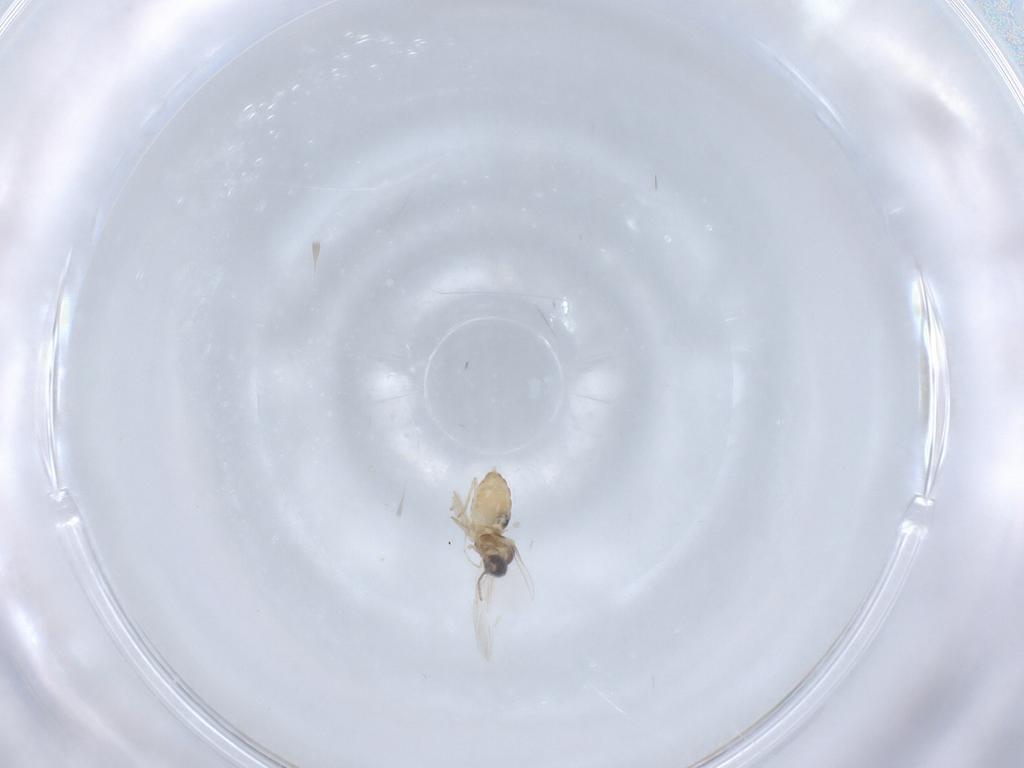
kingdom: Animalia
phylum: Arthropoda
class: Insecta
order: Diptera
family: Cecidomyiidae
